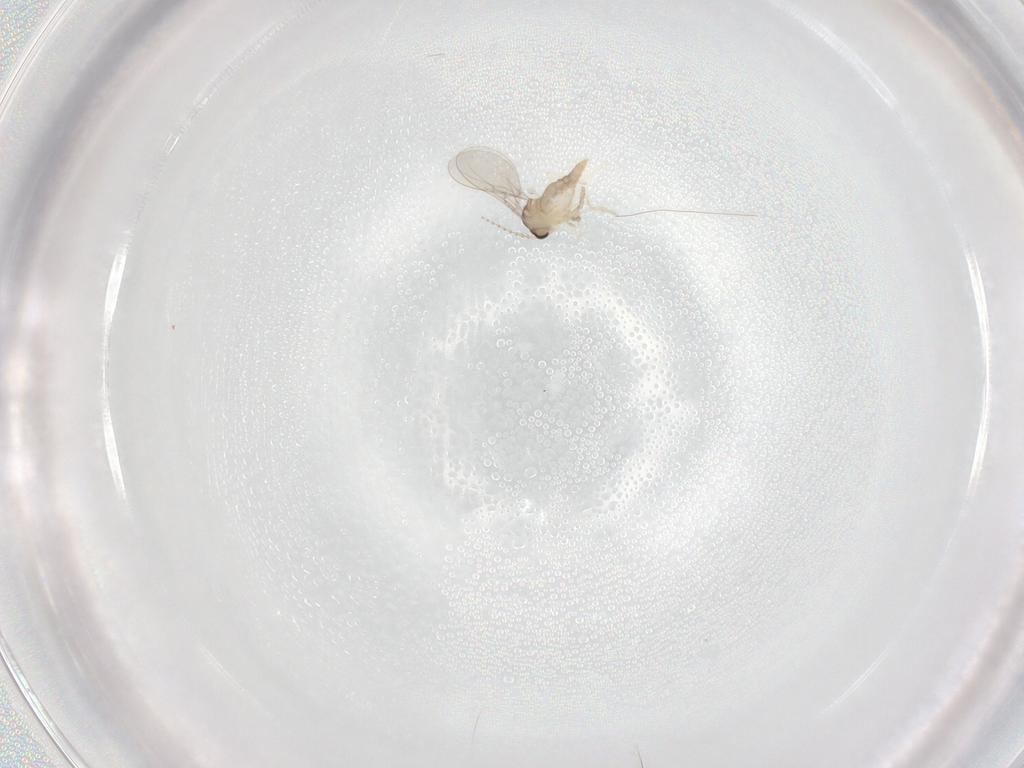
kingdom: Animalia
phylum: Arthropoda
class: Insecta
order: Diptera
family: Cecidomyiidae
